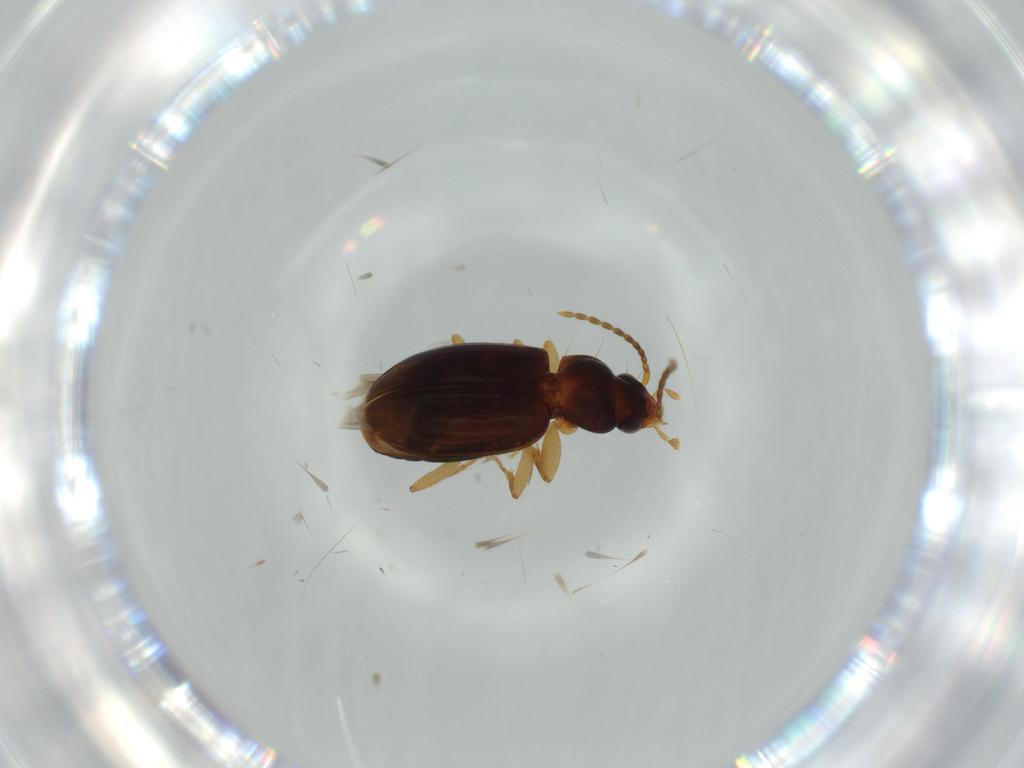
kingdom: Animalia
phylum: Arthropoda
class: Insecta
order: Coleoptera
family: Carabidae
